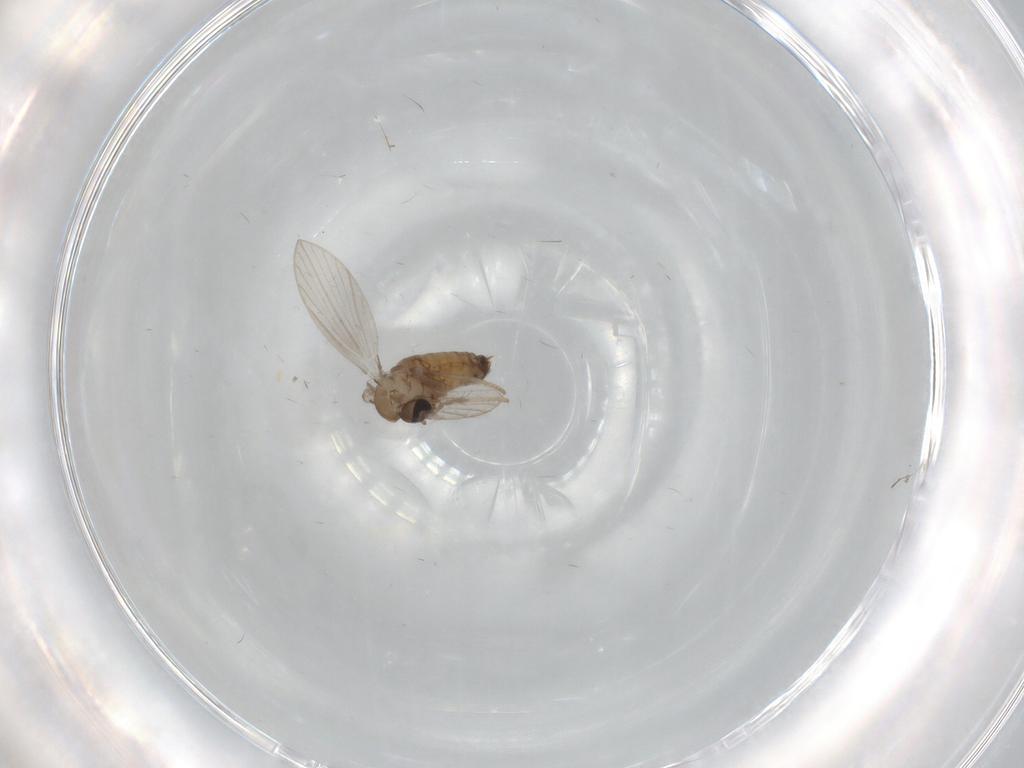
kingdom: Animalia
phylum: Arthropoda
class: Insecta
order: Diptera
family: Psychodidae
